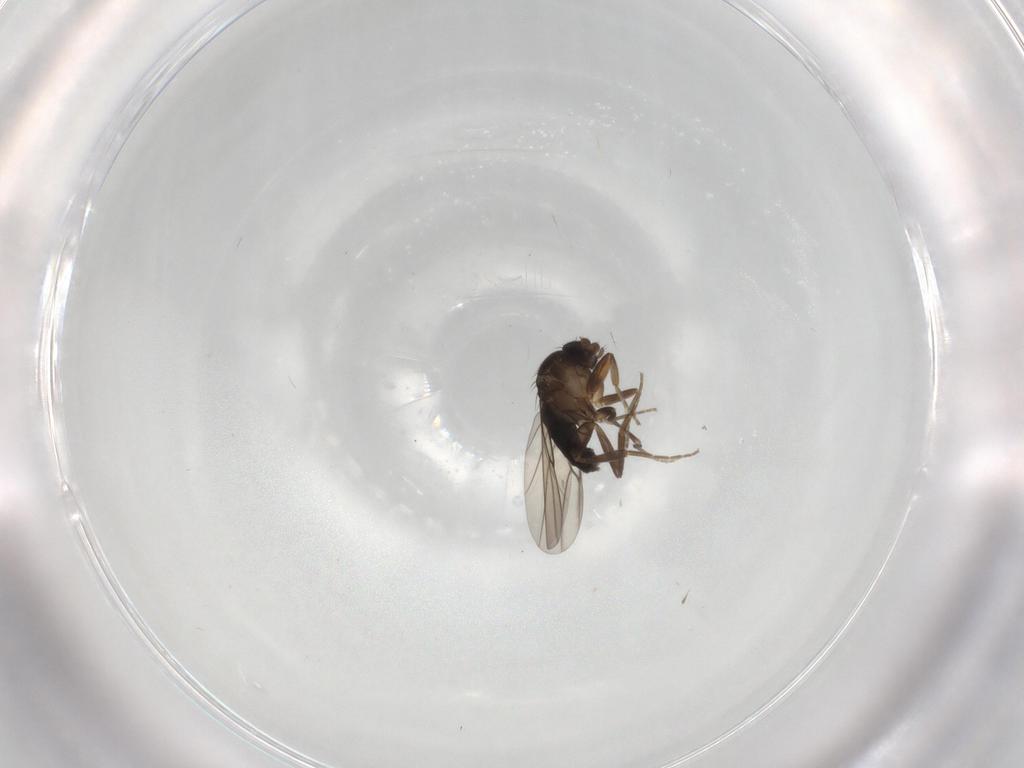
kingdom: Animalia
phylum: Arthropoda
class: Insecta
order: Diptera
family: Phoridae
